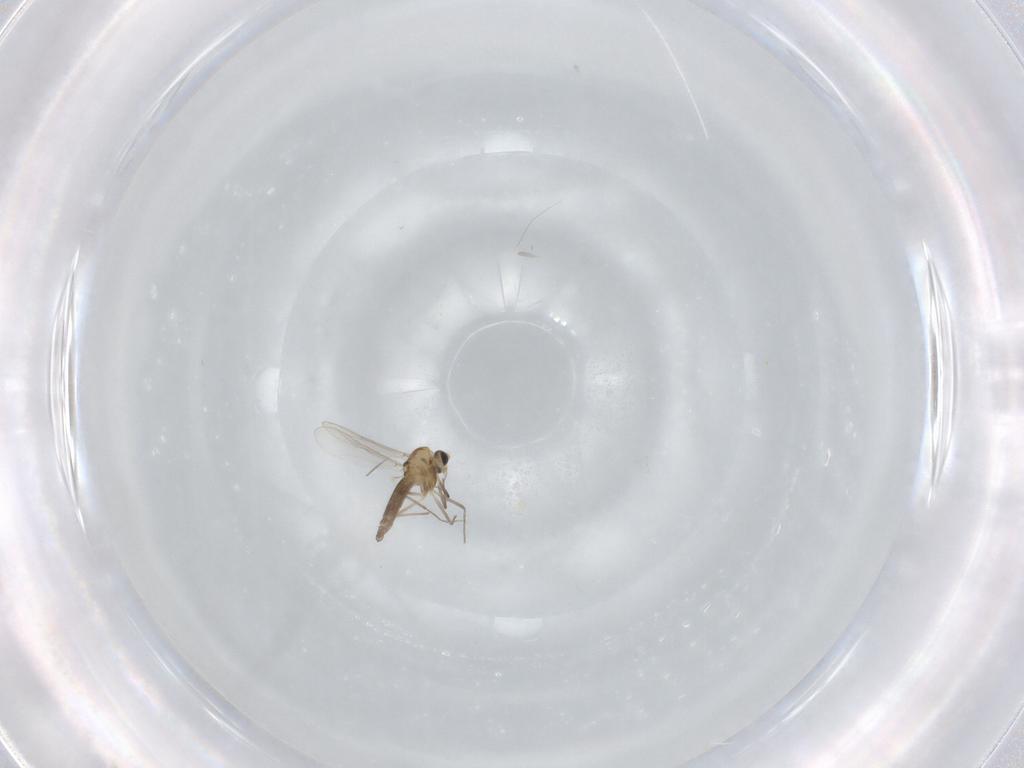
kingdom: Animalia
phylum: Arthropoda
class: Insecta
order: Diptera
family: Chironomidae
